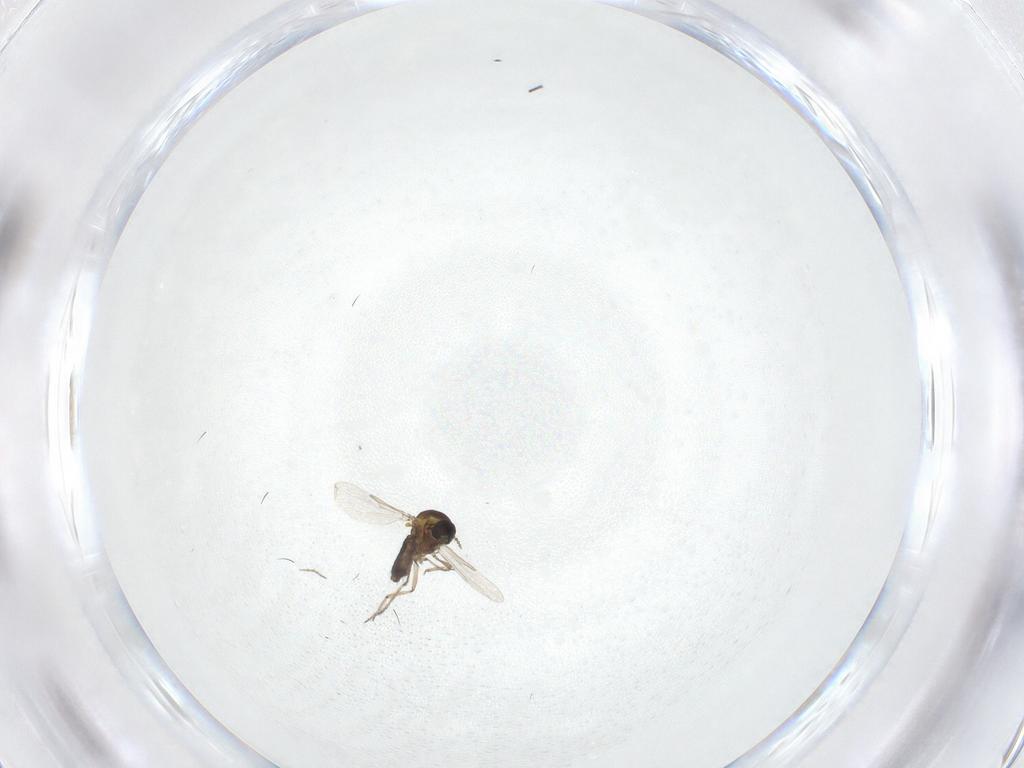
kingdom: Animalia
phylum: Arthropoda
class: Insecta
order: Diptera
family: Ceratopogonidae
